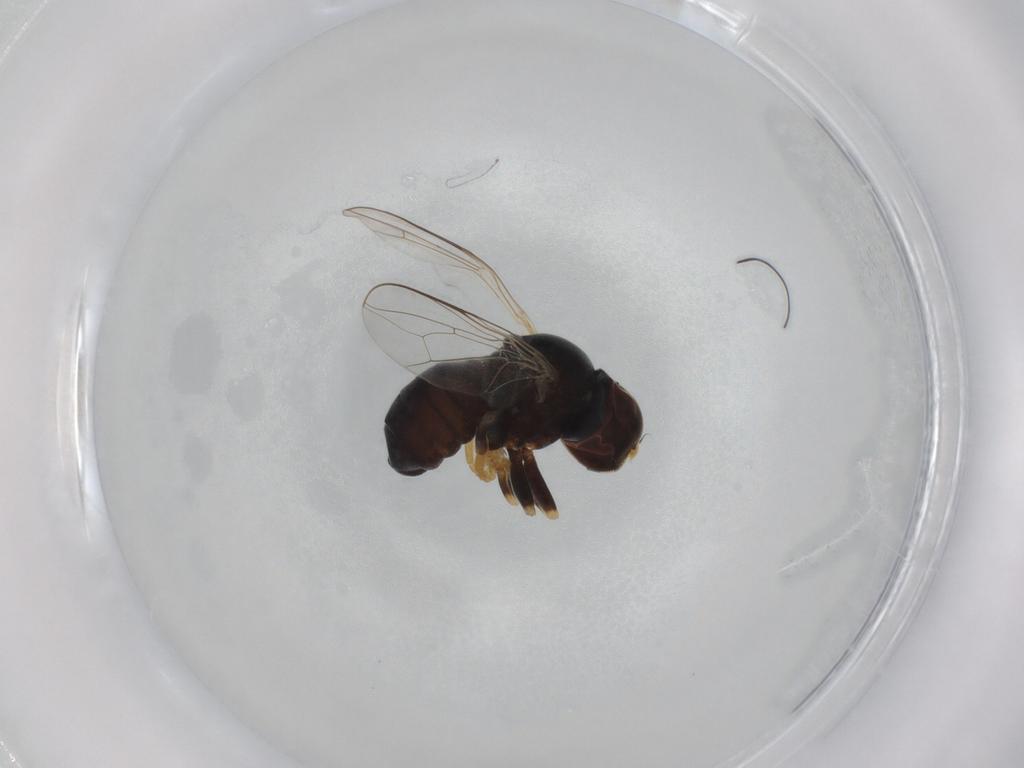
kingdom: Animalia
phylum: Arthropoda
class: Insecta
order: Diptera
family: Pipunculidae
